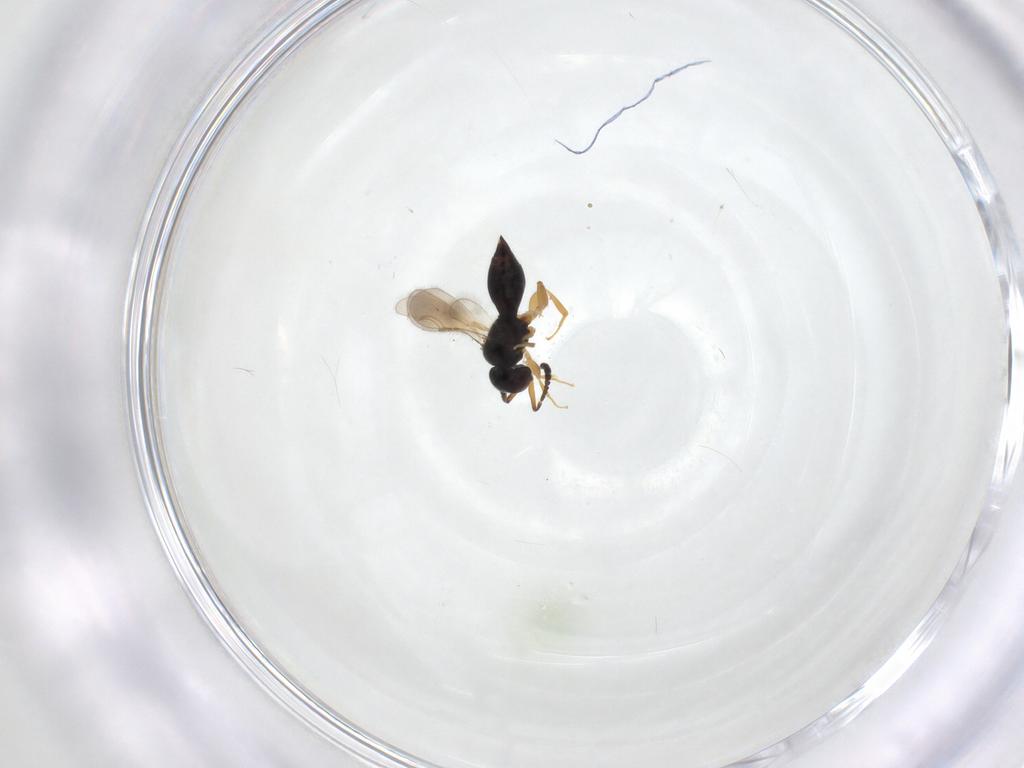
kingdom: Animalia
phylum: Arthropoda
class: Insecta
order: Hymenoptera
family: Ceraphronidae
